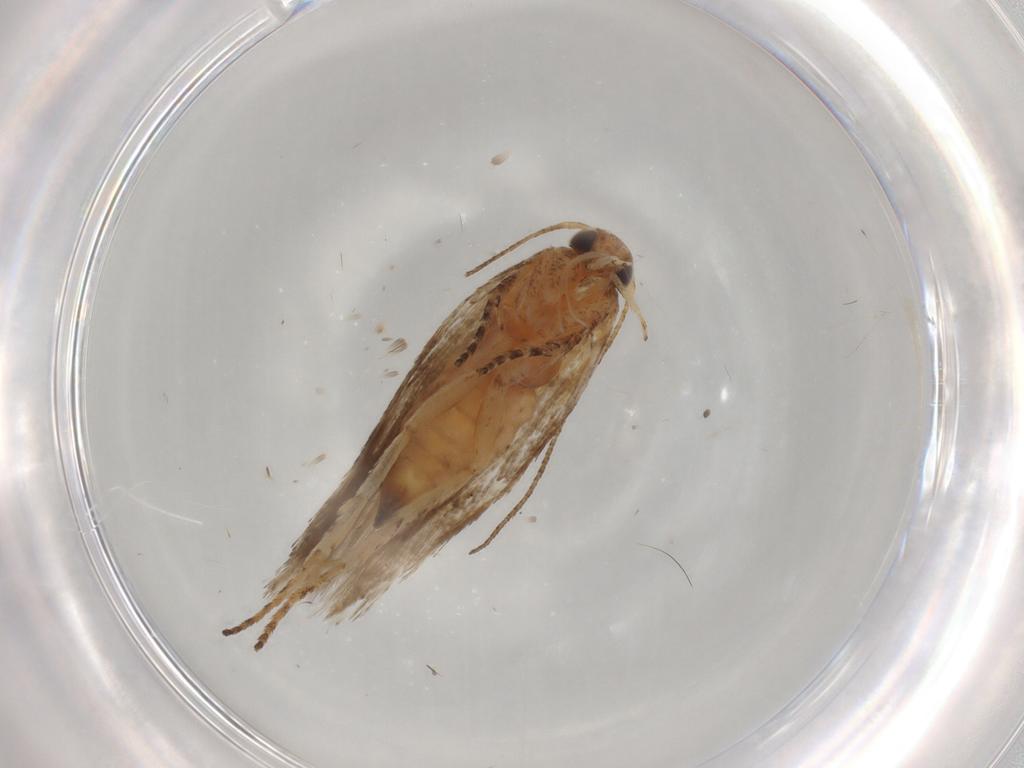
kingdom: Animalia
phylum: Arthropoda
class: Insecta
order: Lepidoptera
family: Gelechiidae
